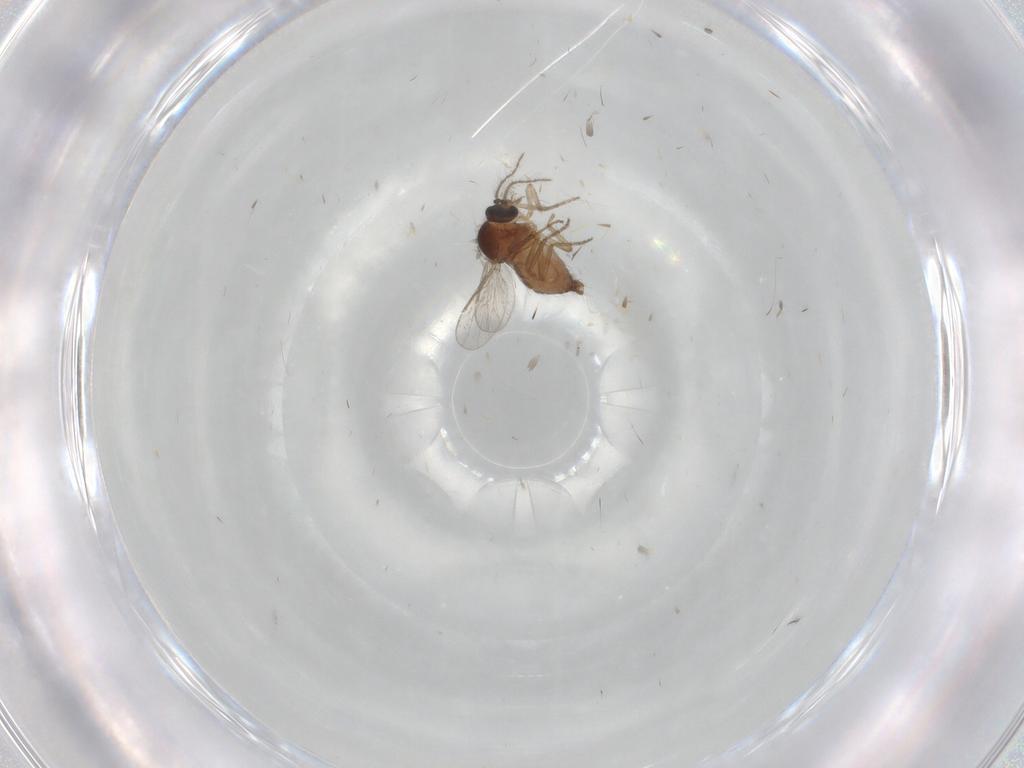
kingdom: Animalia
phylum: Arthropoda
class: Insecta
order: Diptera
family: Ceratopogonidae
